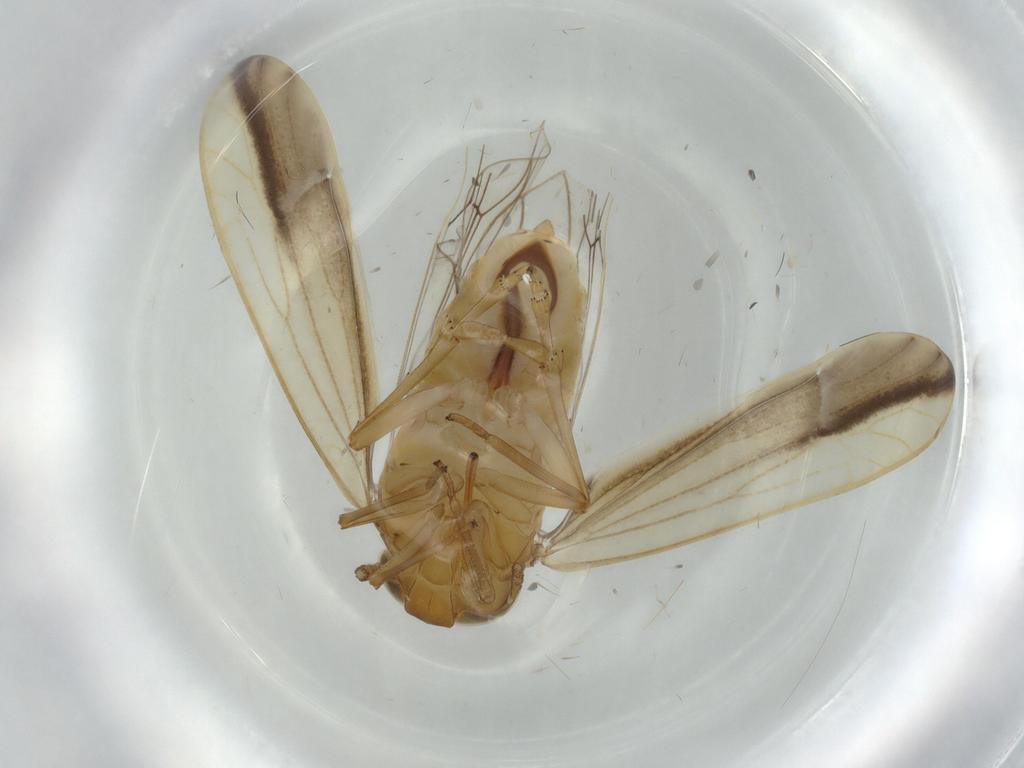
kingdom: Animalia
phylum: Arthropoda
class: Insecta
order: Hemiptera
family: Delphacidae
